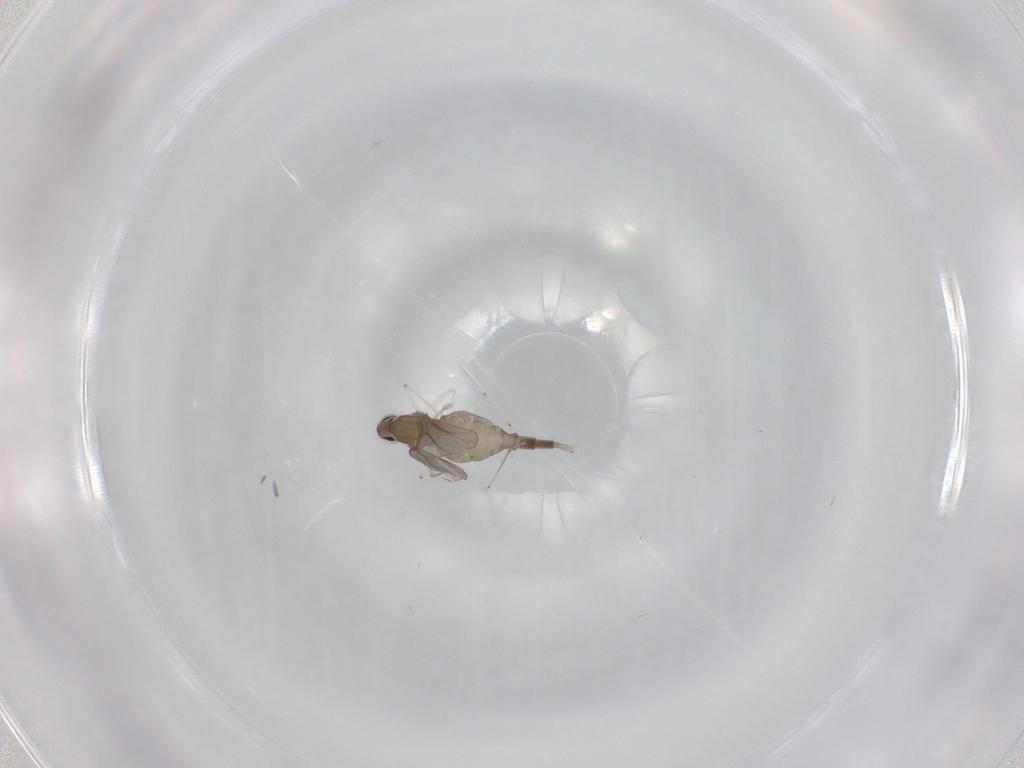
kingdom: Animalia
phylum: Arthropoda
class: Insecta
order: Diptera
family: Cecidomyiidae
